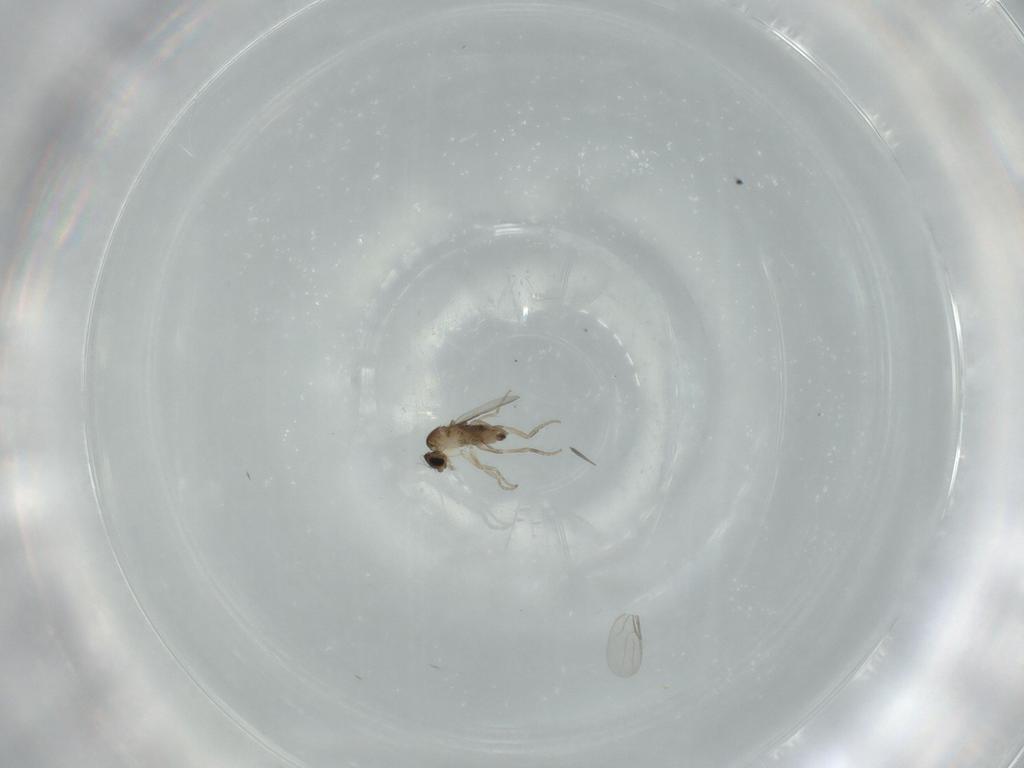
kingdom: Animalia
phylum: Arthropoda
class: Insecta
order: Diptera
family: Phoridae
